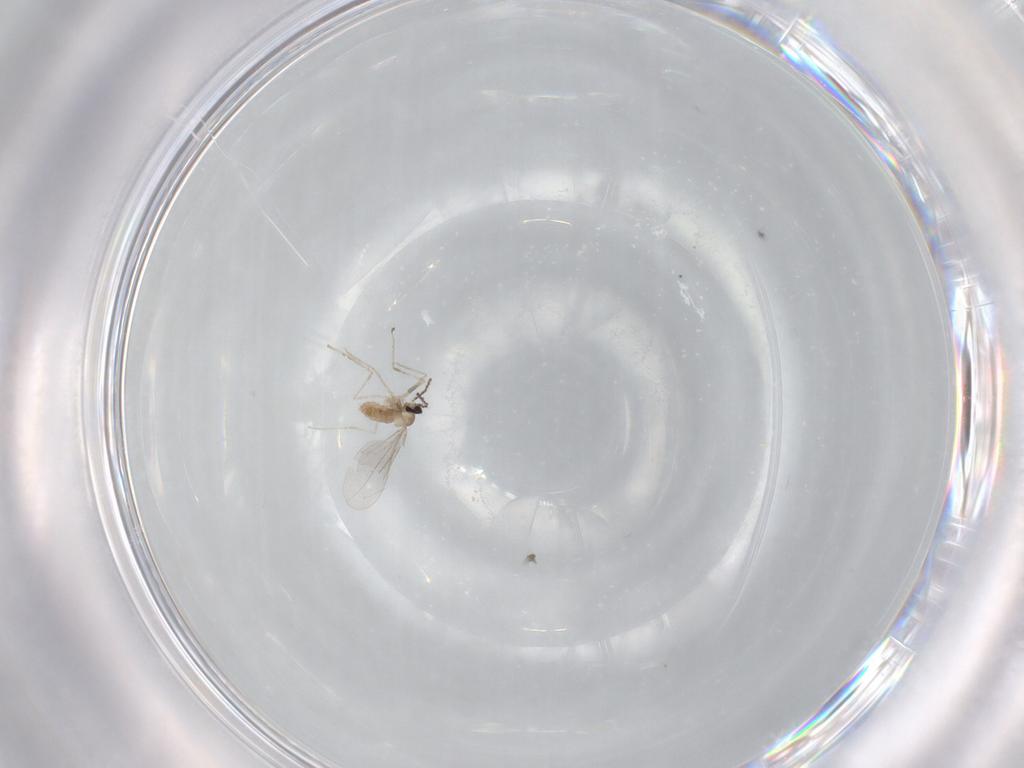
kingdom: Animalia
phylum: Arthropoda
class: Insecta
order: Diptera
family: Cecidomyiidae
